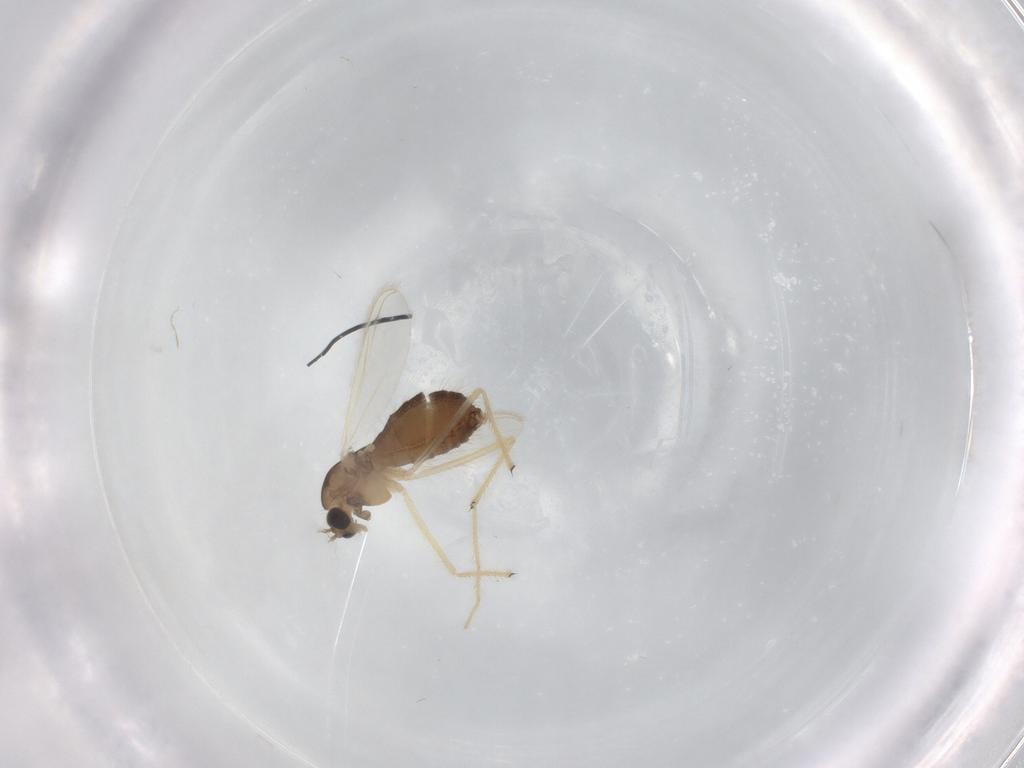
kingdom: Animalia
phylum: Arthropoda
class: Insecta
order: Diptera
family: Chironomidae
